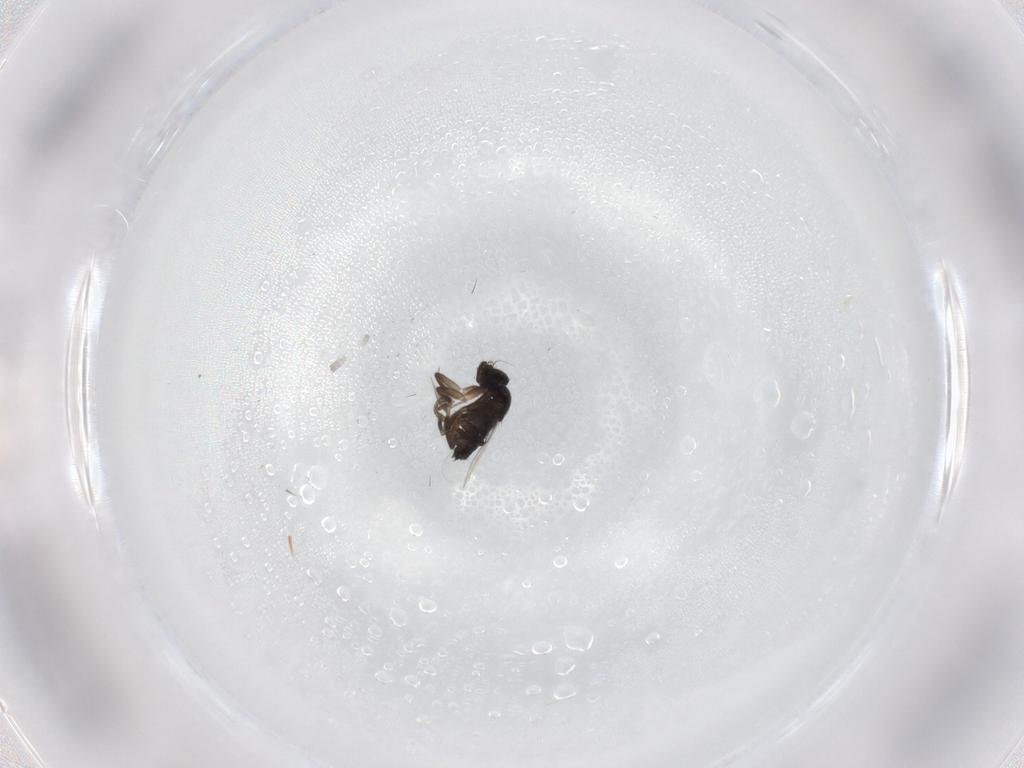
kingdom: Animalia
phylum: Arthropoda
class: Insecta
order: Diptera
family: Phoridae
